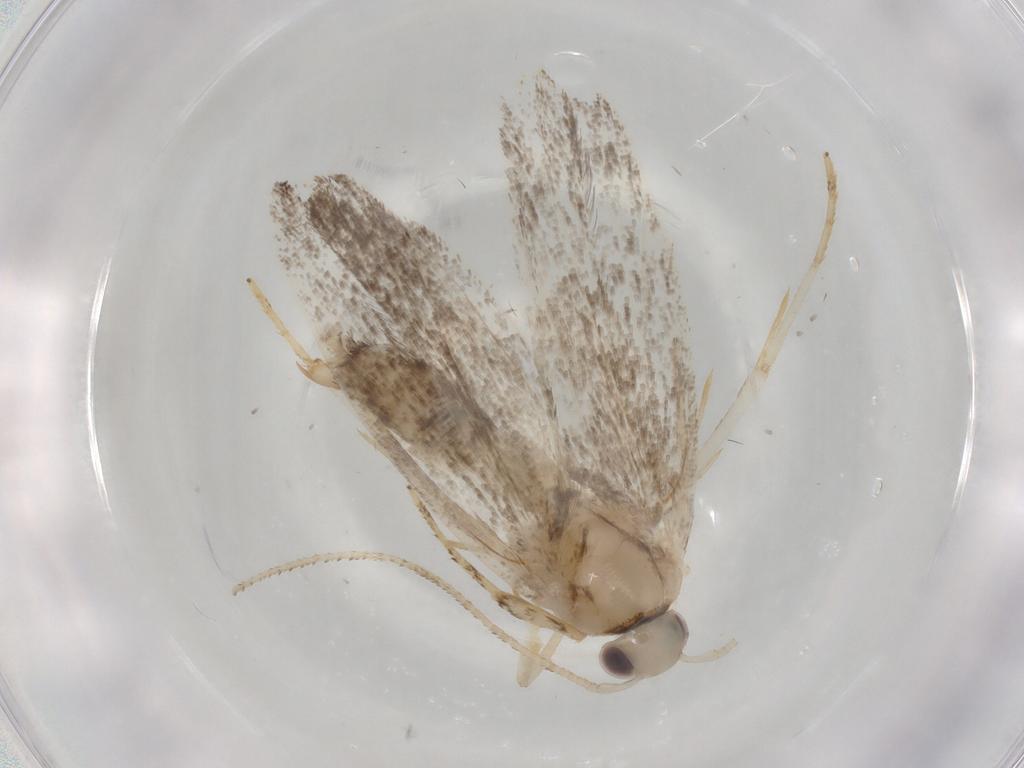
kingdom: Animalia
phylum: Arthropoda
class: Insecta
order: Lepidoptera
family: Gelechiidae
